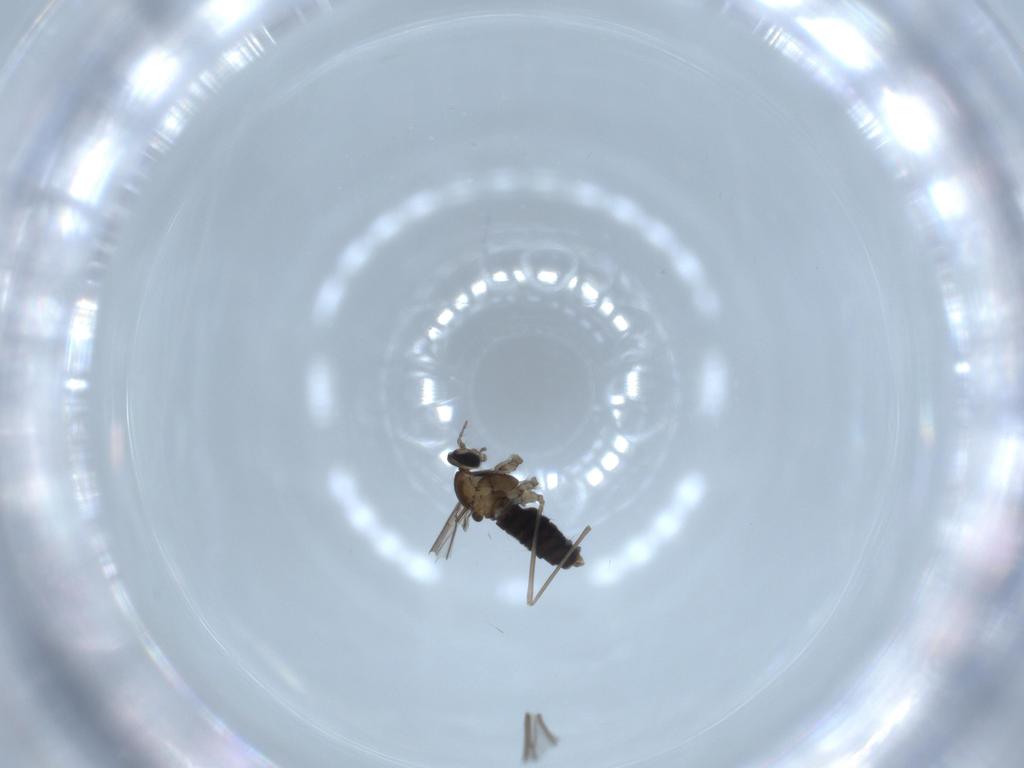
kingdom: Animalia
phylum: Arthropoda
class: Insecta
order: Diptera
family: Cecidomyiidae
